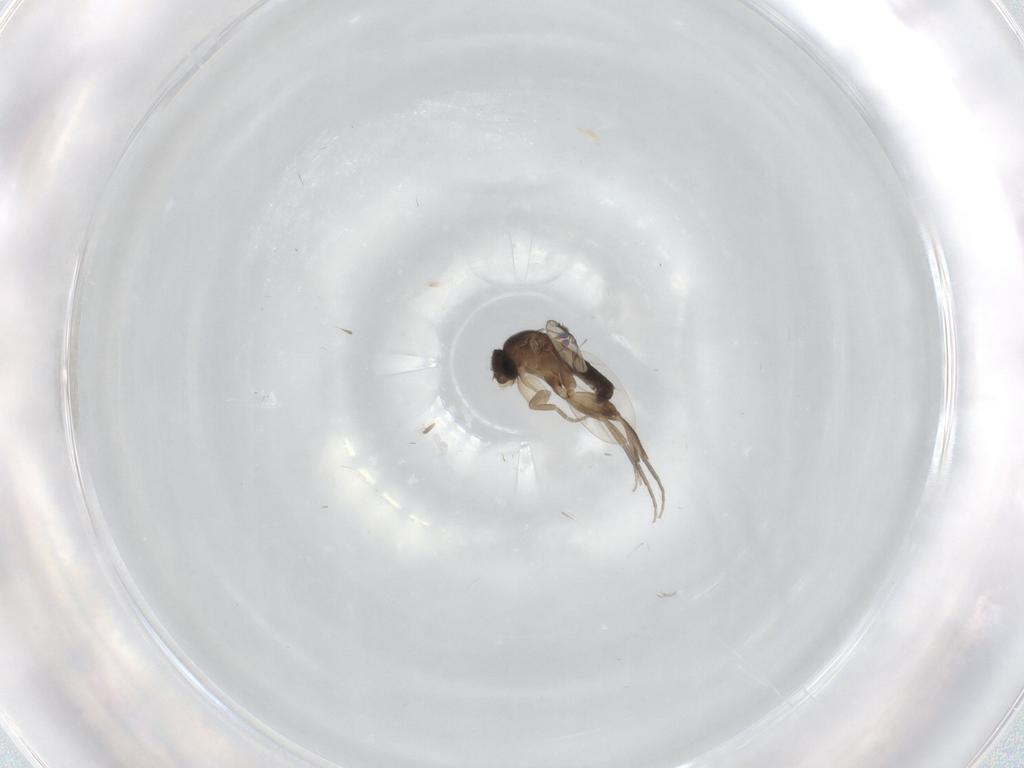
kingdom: Animalia
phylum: Arthropoda
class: Insecta
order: Diptera
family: Phoridae
